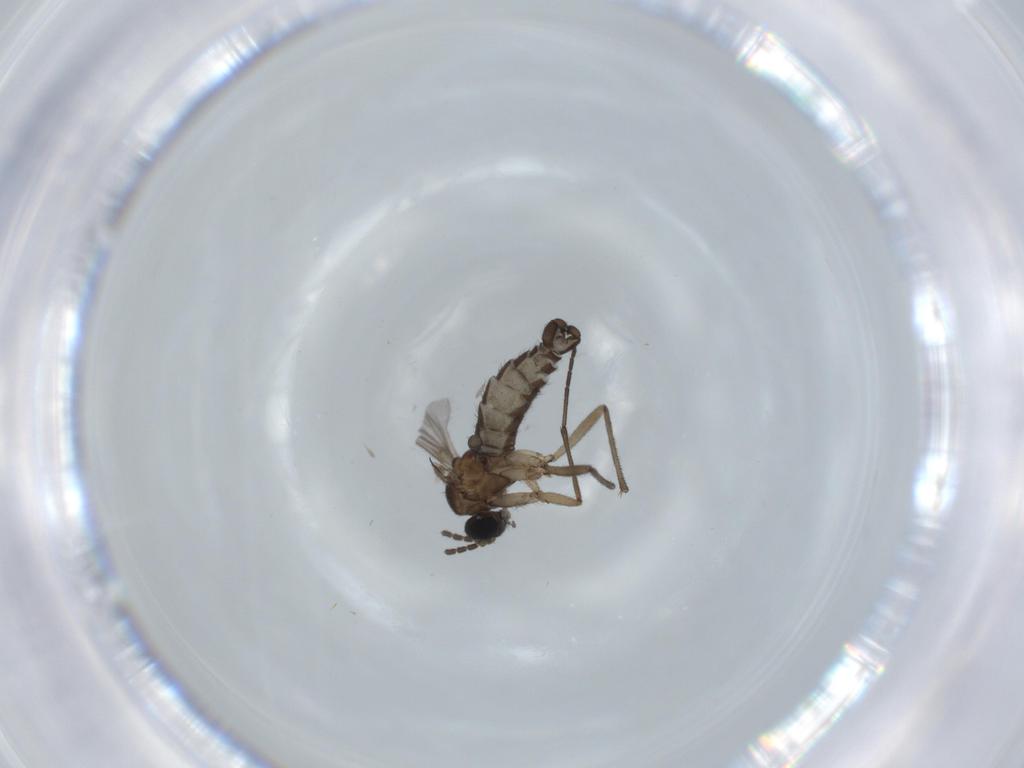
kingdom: Animalia
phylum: Arthropoda
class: Insecta
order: Diptera
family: Sciaridae
